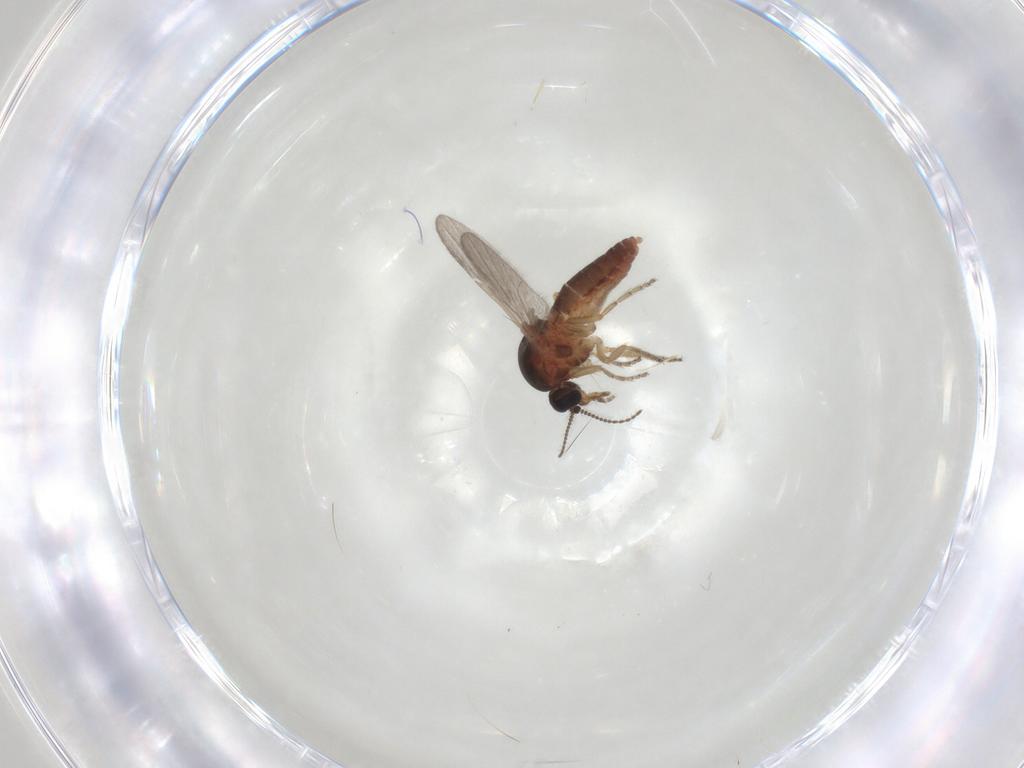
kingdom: Animalia
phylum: Arthropoda
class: Insecta
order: Diptera
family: Ceratopogonidae
